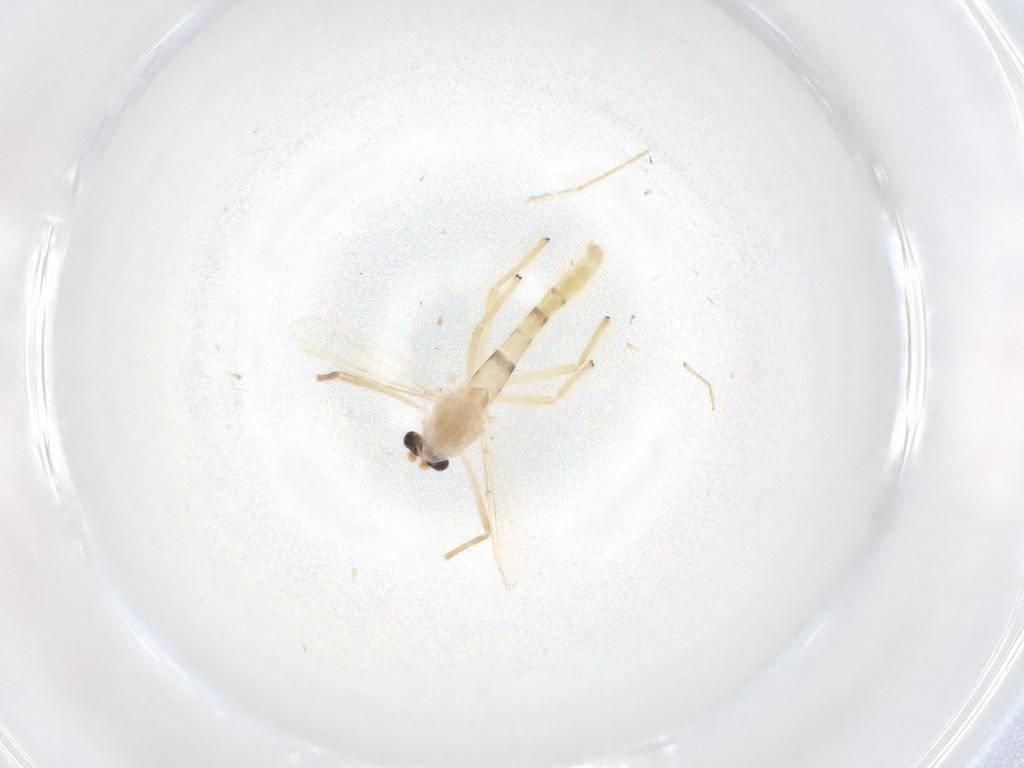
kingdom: Animalia
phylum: Arthropoda
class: Insecta
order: Diptera
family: Chironomidae
